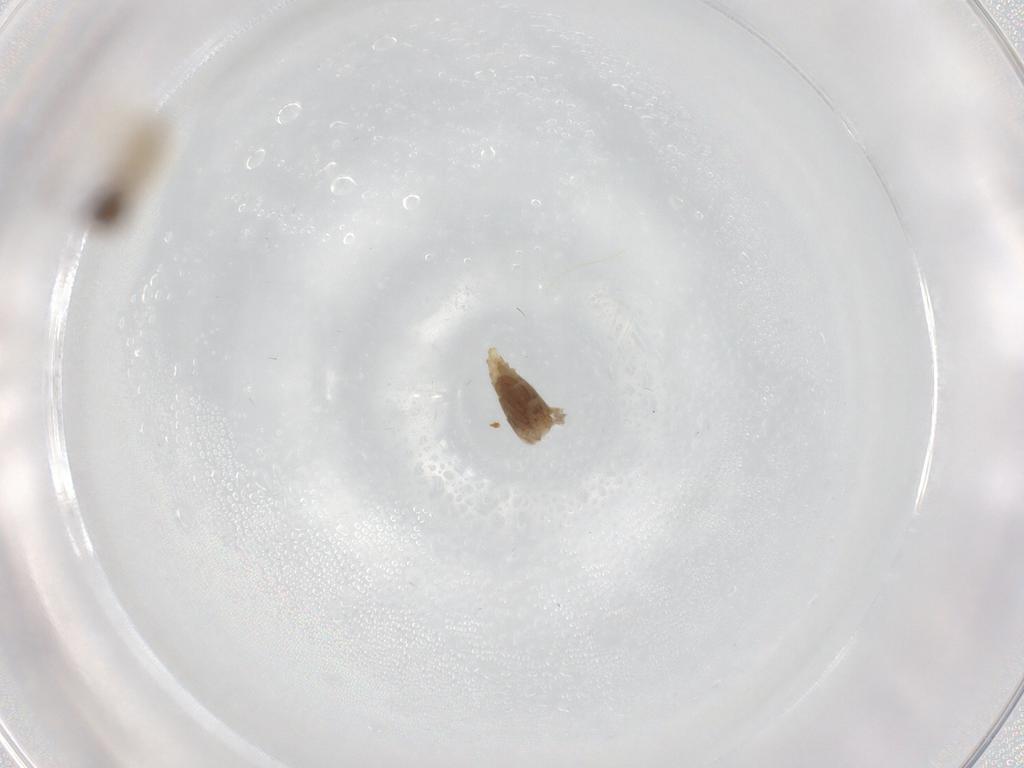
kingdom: Animalia
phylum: Arthropoda
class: Insecta
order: Diptera
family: Psychodidae
